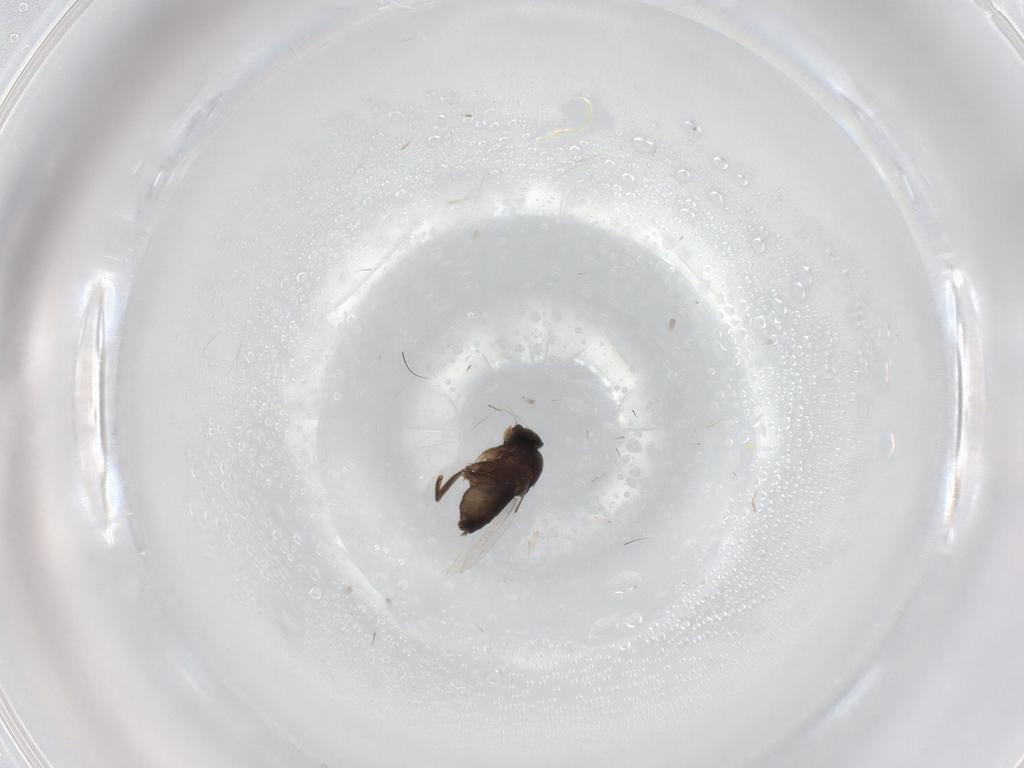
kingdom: Animalia
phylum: Arthropoda
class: Insecta
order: Diptera
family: Phoridae
